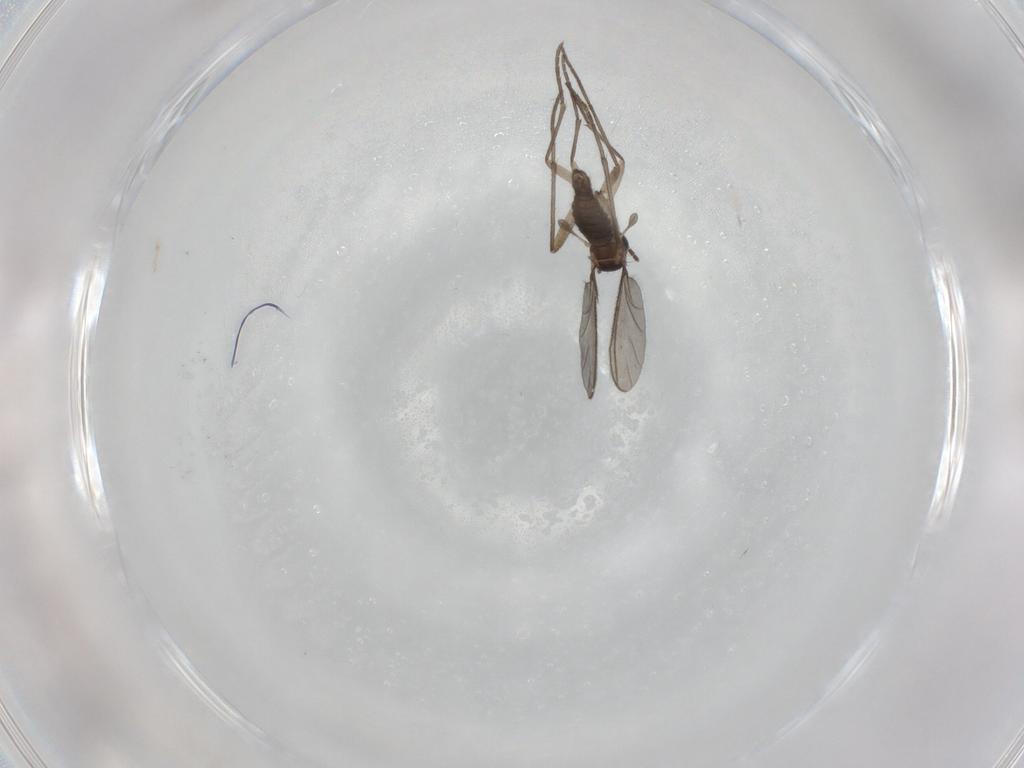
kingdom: Animalia
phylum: Arthropoda
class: Insecta
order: Diptera
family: Sciaridae
